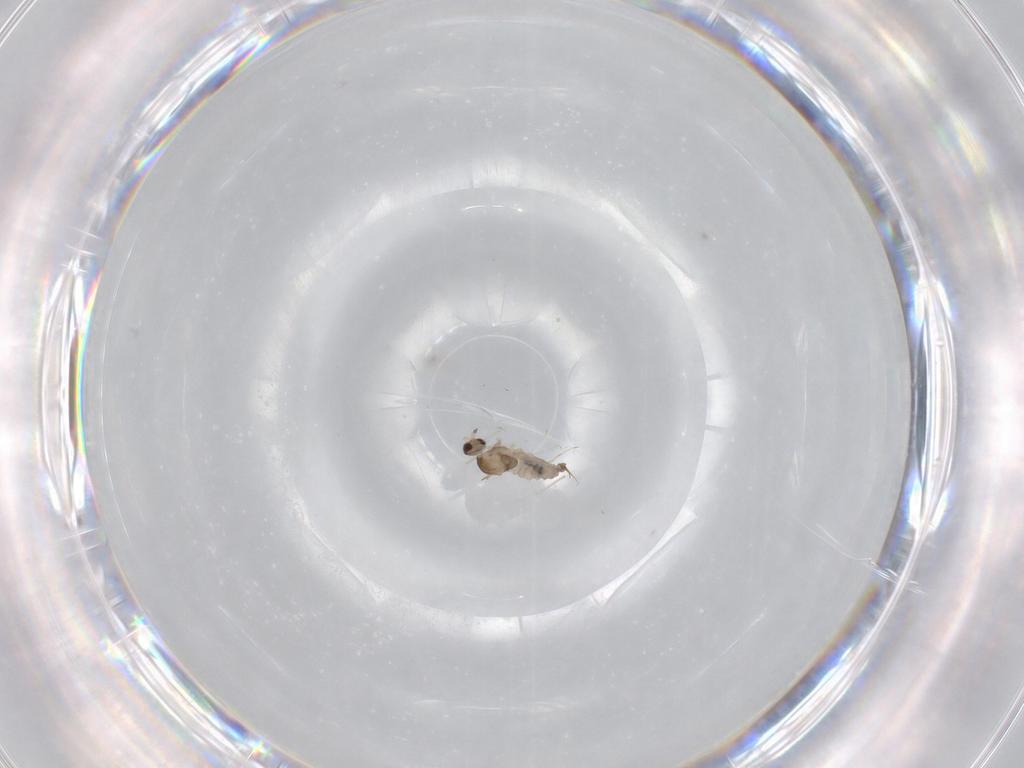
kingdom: Animalia
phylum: Arthropoda
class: Insecta
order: Diptera
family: Cecidomyiidae
